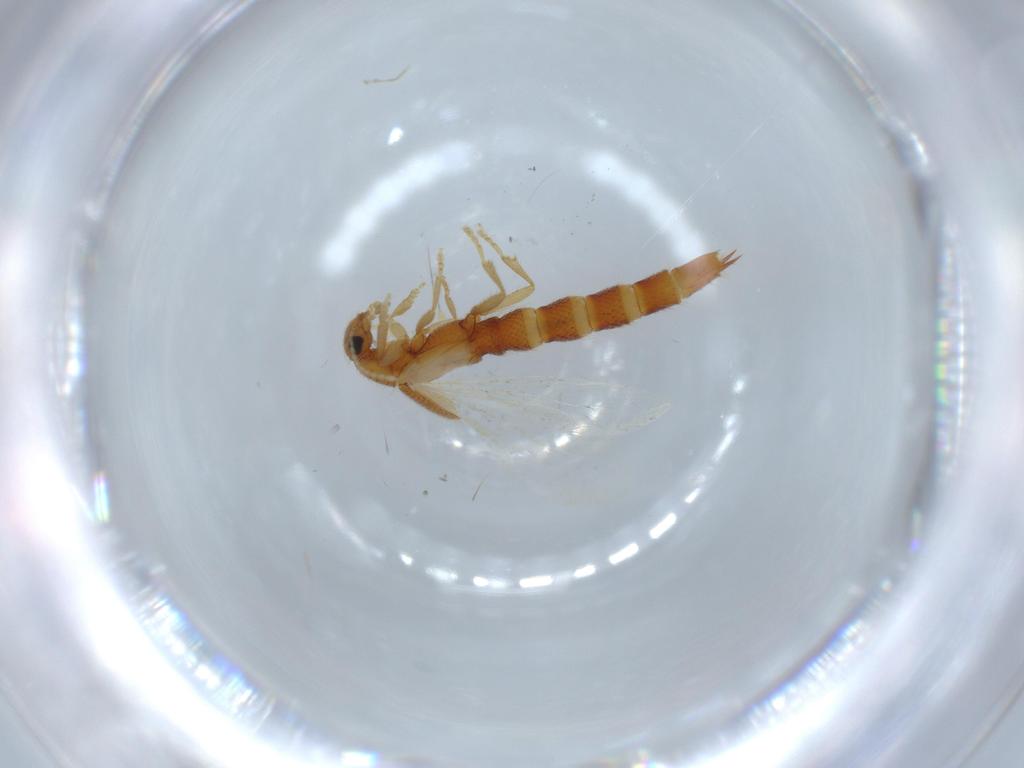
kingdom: Animalia
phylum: Arthropoda
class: Insecta
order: Coleoptera
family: Staphylinidae
